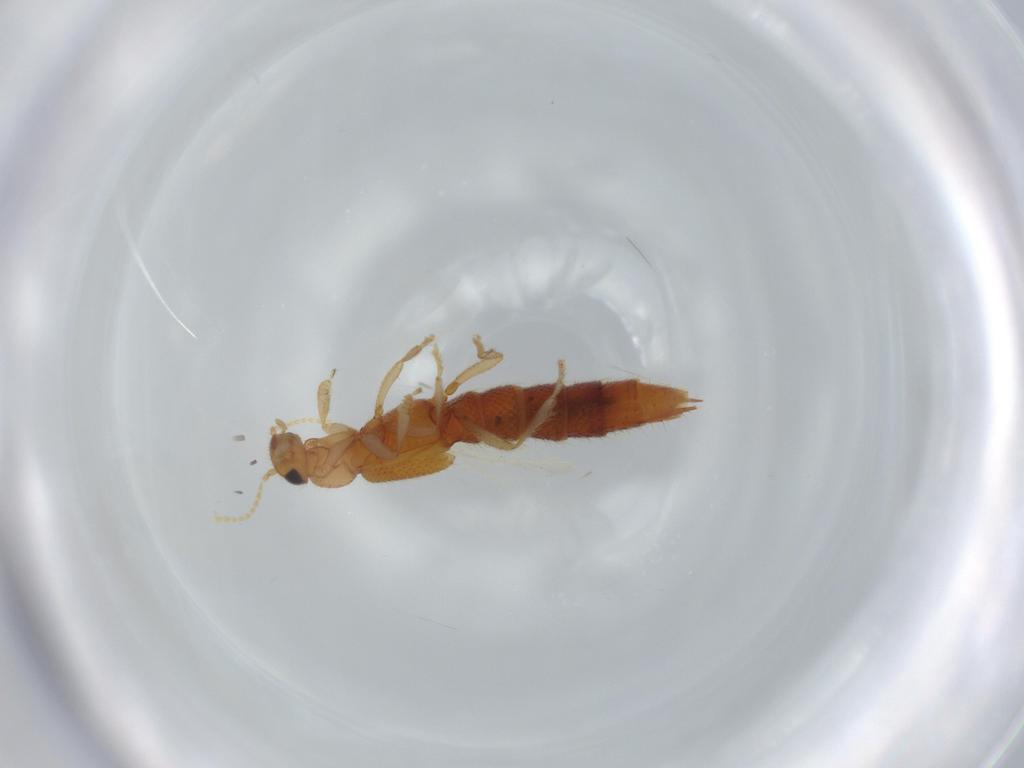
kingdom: Animalia
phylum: Arthropoda
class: Insecta
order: Coleoptera
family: Staphylinidae
